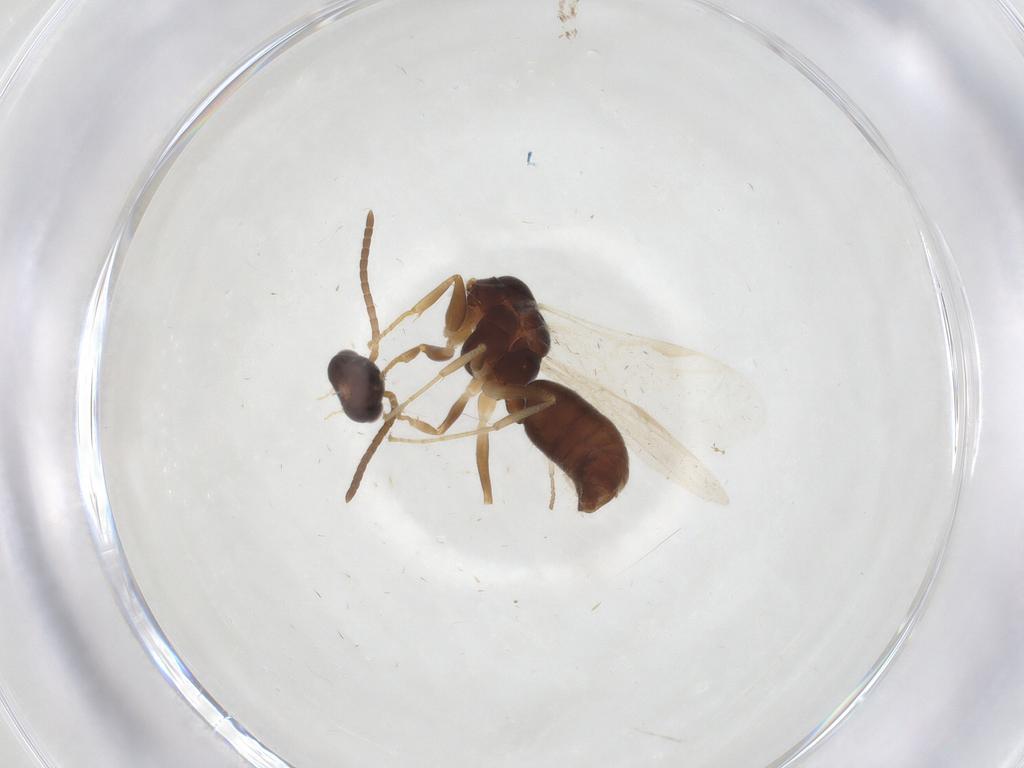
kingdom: Animalia
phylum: Arthropoda
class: Insecta
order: Hymenoptera
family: Formicidae
